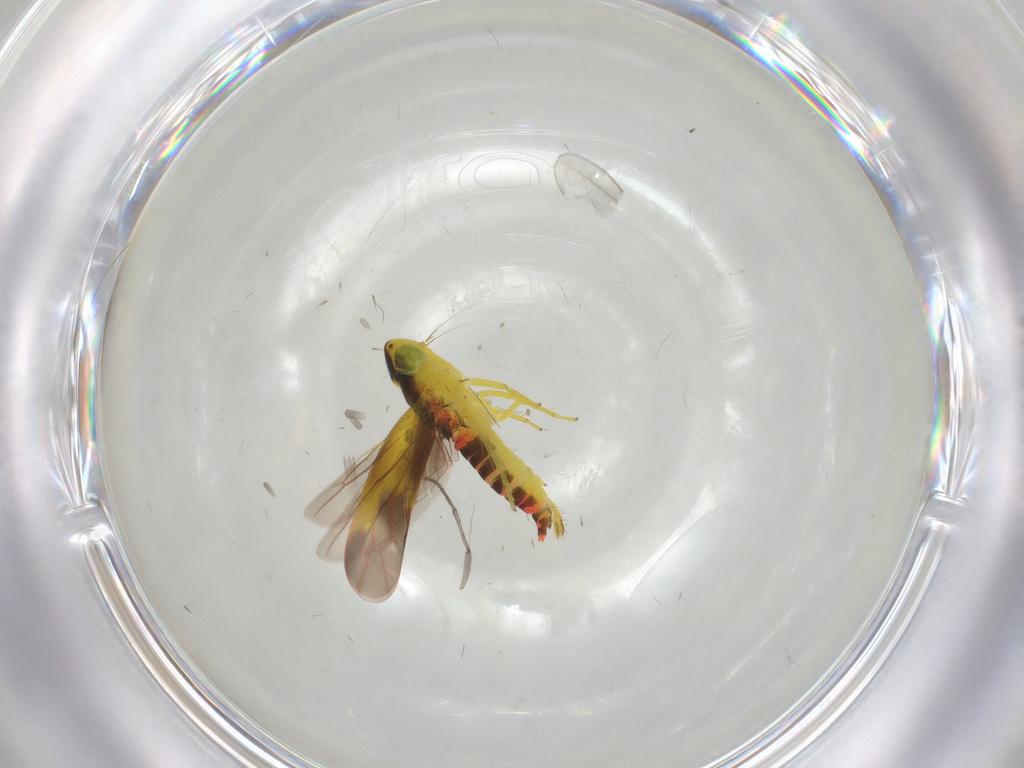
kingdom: Animalia
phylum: Arthropoda
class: Insecta
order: Hemiptera
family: Cicadellidae
